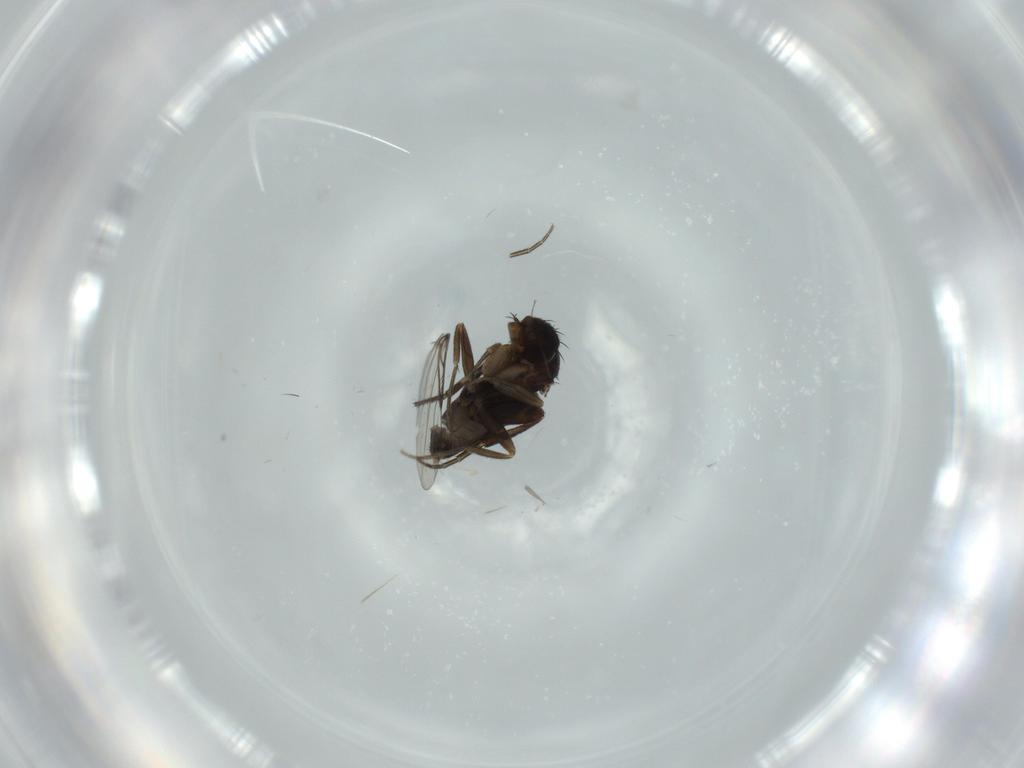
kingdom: Animalia
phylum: Arthropoda
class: Insecta
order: Diptera
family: Phoridae
